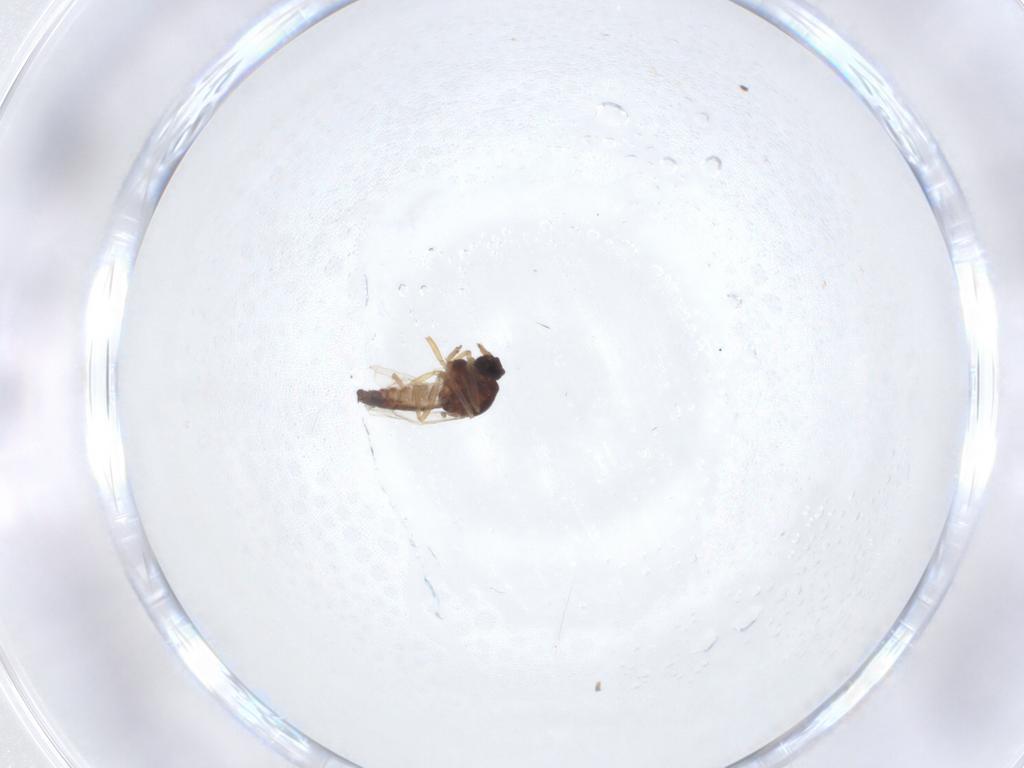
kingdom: Animalia
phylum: Arthropoda
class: Insecta
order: Diptera
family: Ceratopogonidae
